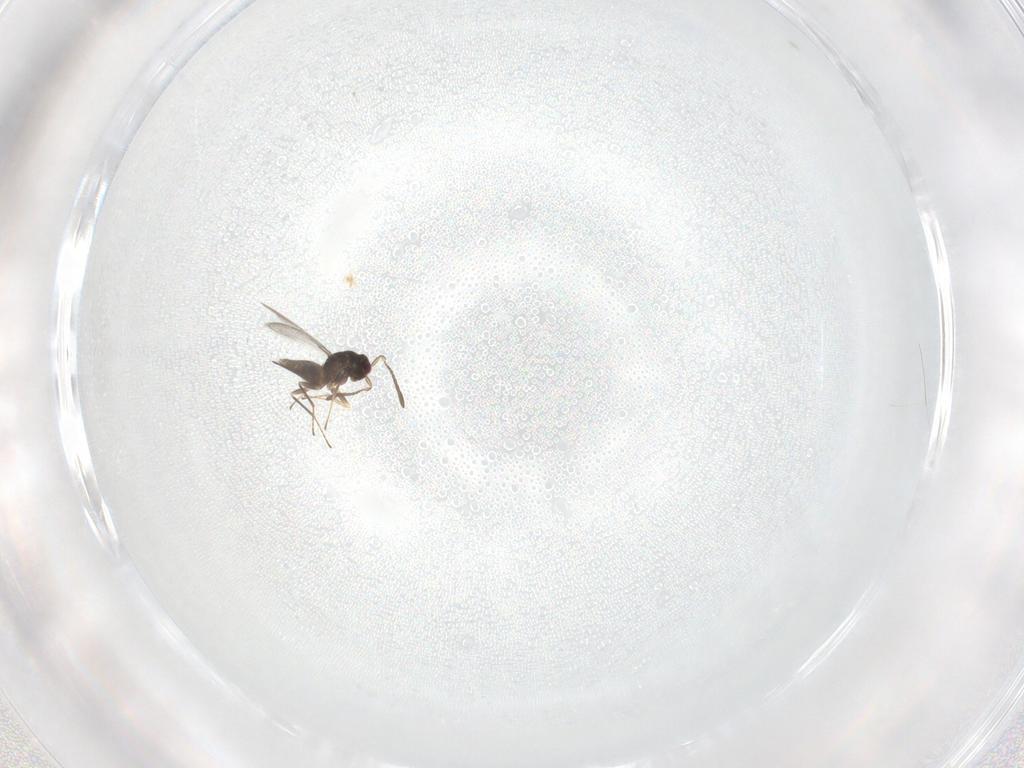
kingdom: Animalia
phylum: Arthropoda
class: Insecta
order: Hymenoptera
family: Mymaridae
